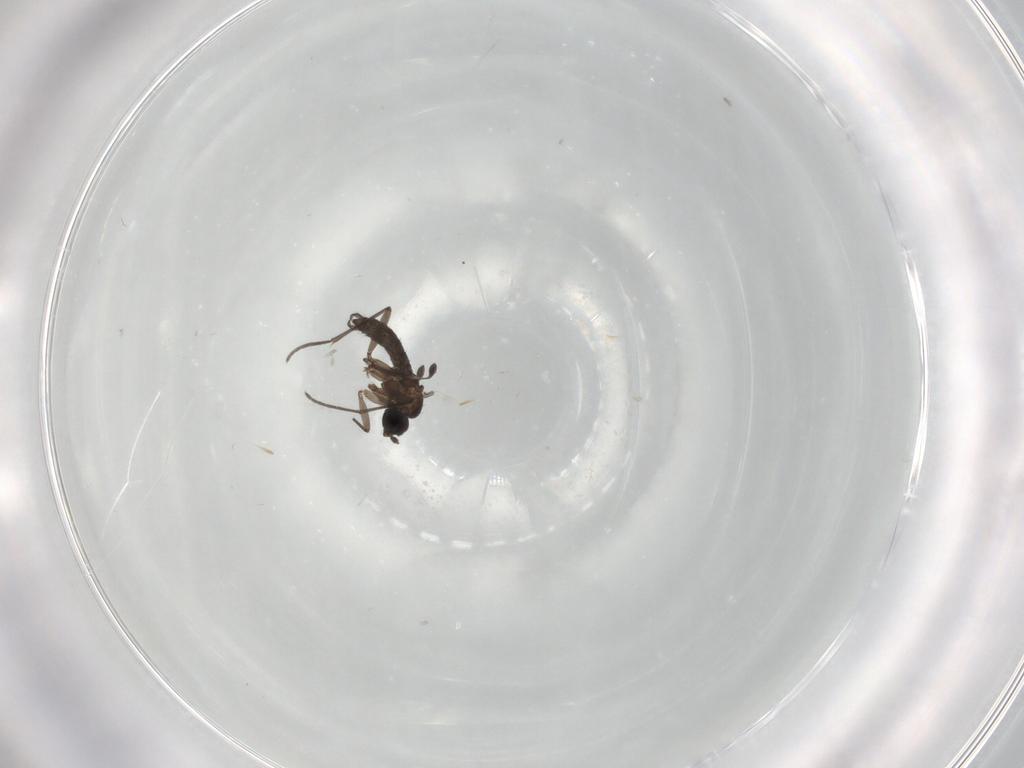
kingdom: Animalia
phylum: Arthropoda
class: Insecta
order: Diptera
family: Sciaridae
